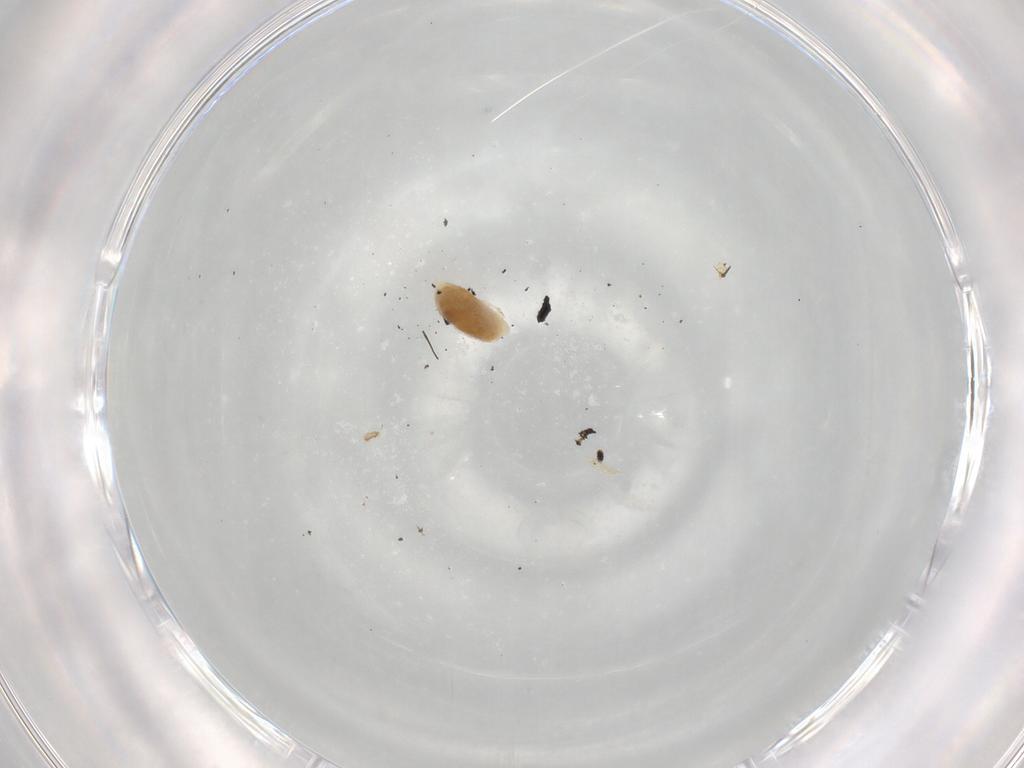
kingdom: Animalia
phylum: Arthropoda
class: Insecta
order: Hymenoptera
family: Eulophidae
